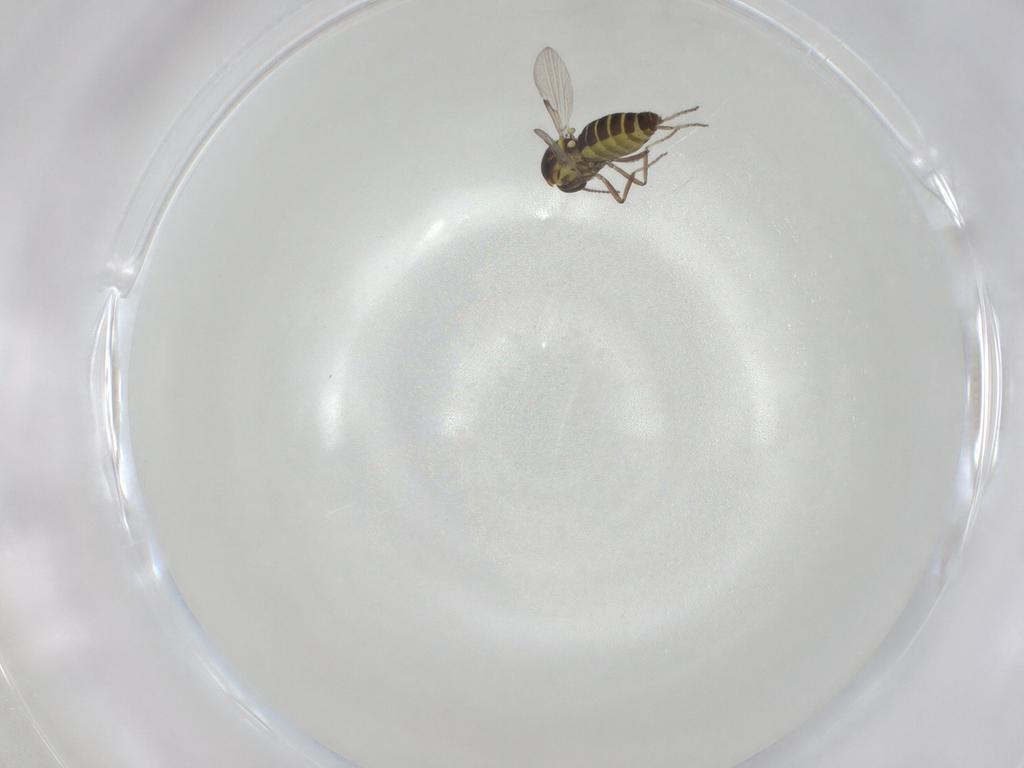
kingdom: Animalia
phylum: Arthropoda
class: Insecta
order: Diptera
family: Ceratopogonidae
